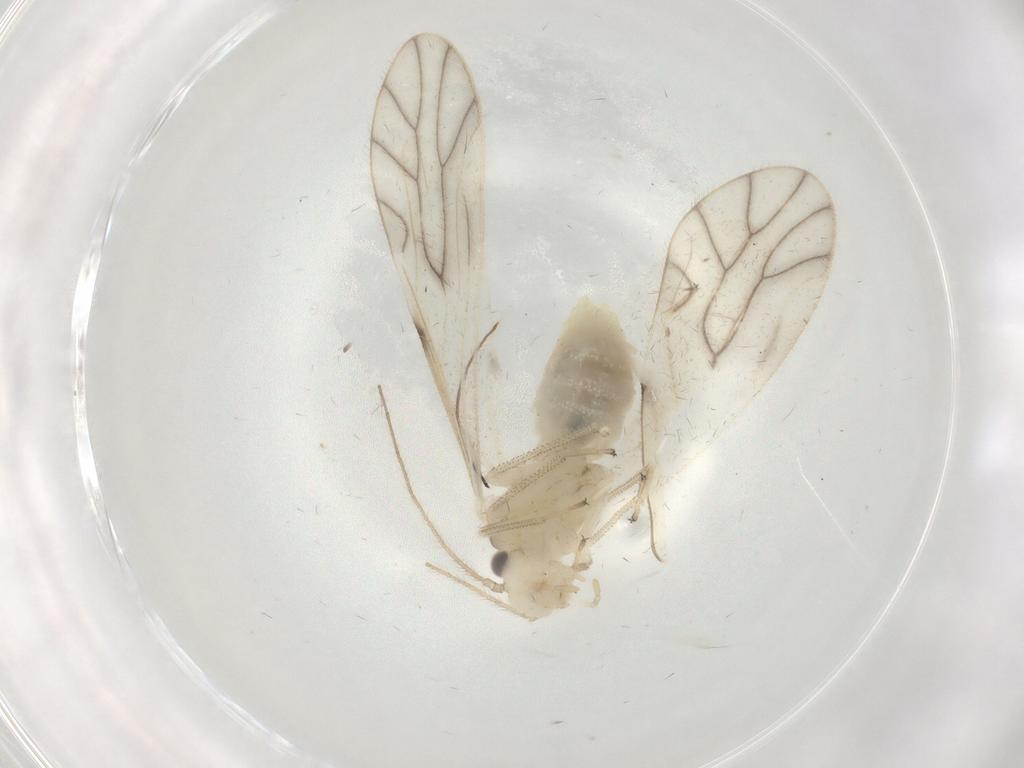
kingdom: Animalia
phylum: Arthropoda
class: Insecta
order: Psocodea
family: Caeciliusidae
